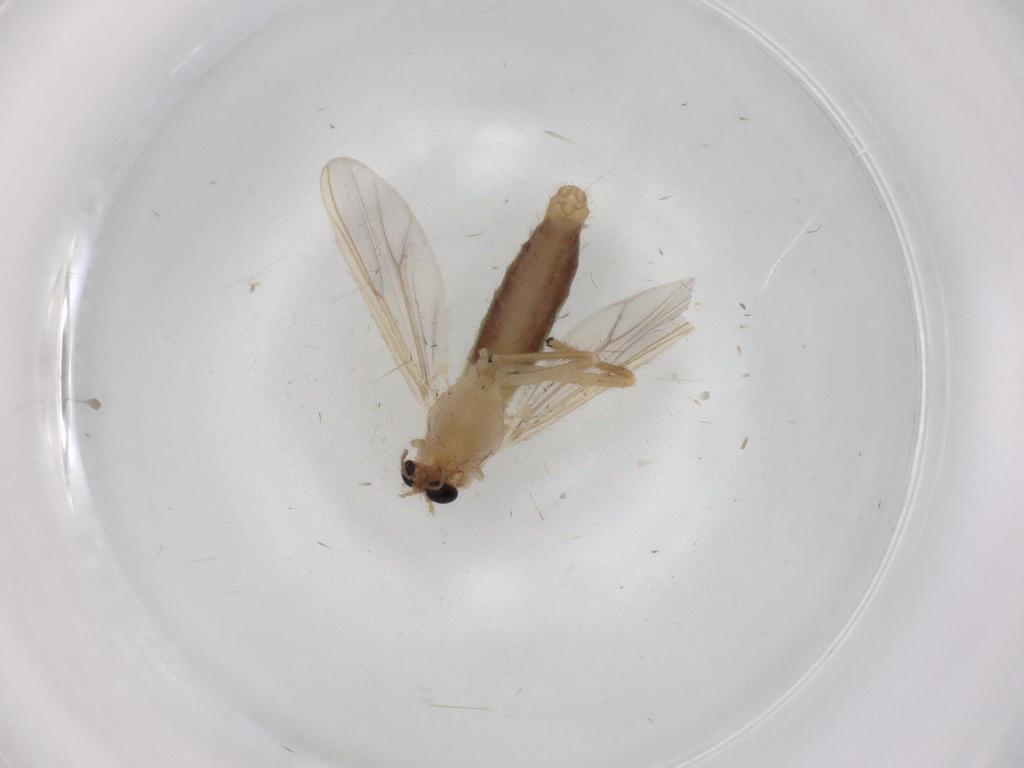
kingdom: Animalia
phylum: Arthropoda
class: Insecta
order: Diptera
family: Chironomidae
